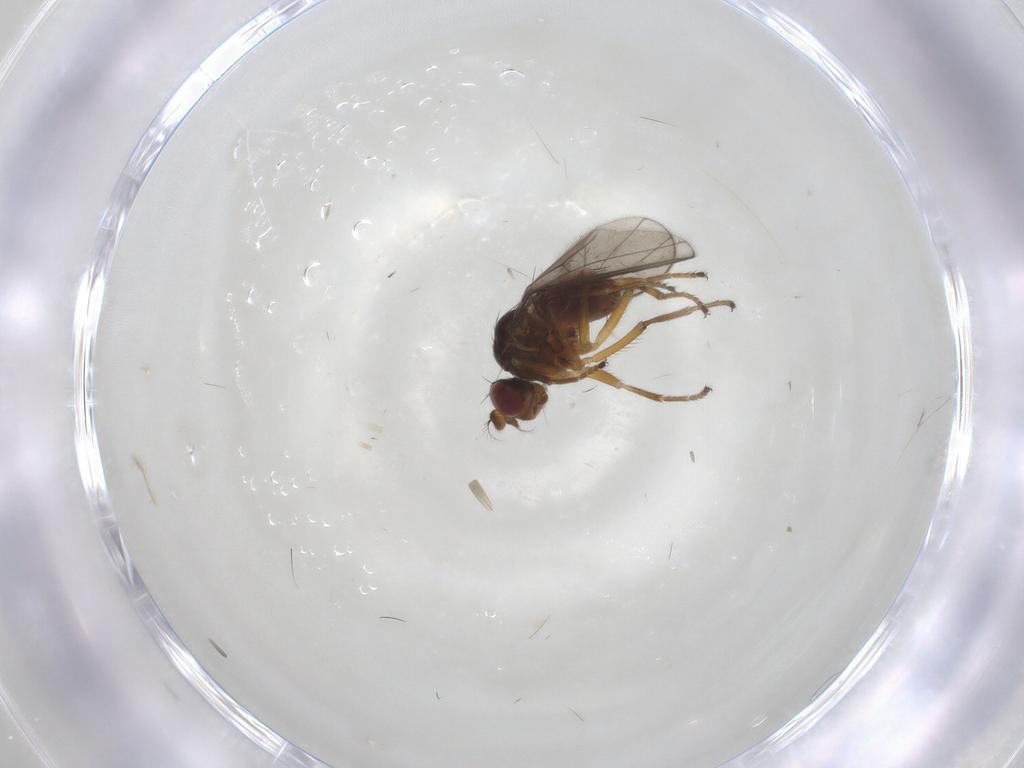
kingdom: Animalia
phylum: Arthropoda
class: Insecta
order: Diptera
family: Ephydridae
